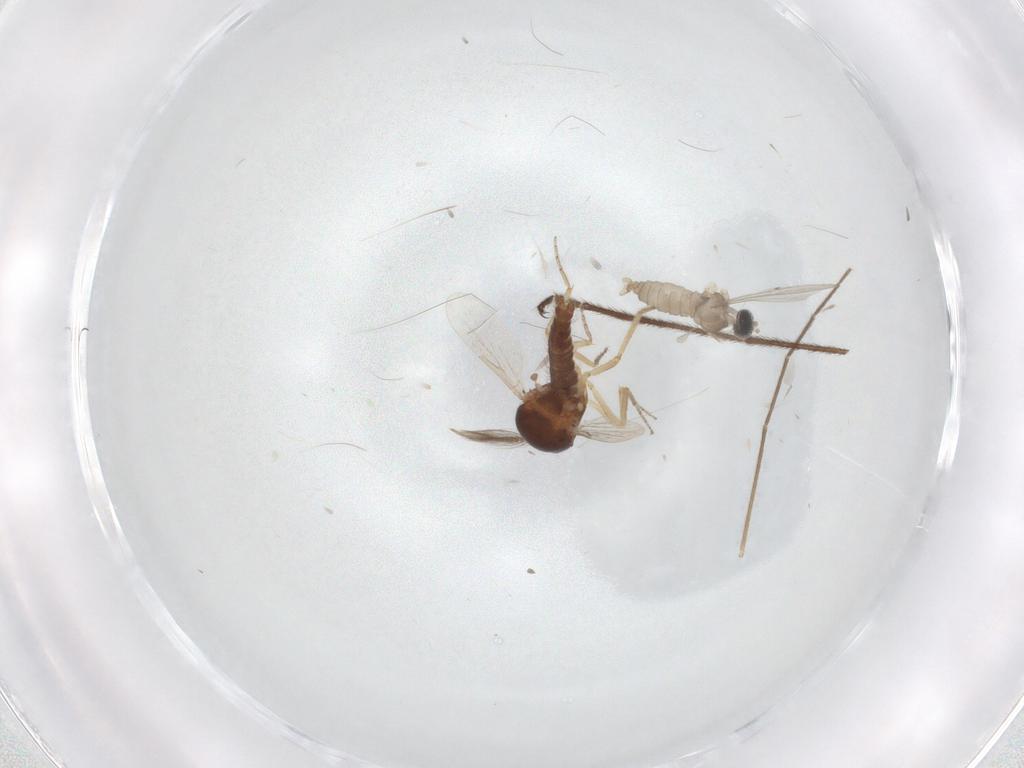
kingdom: Animalia
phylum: Arthropoda
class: Insecta
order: Diptera
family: Ceratopogonidae
